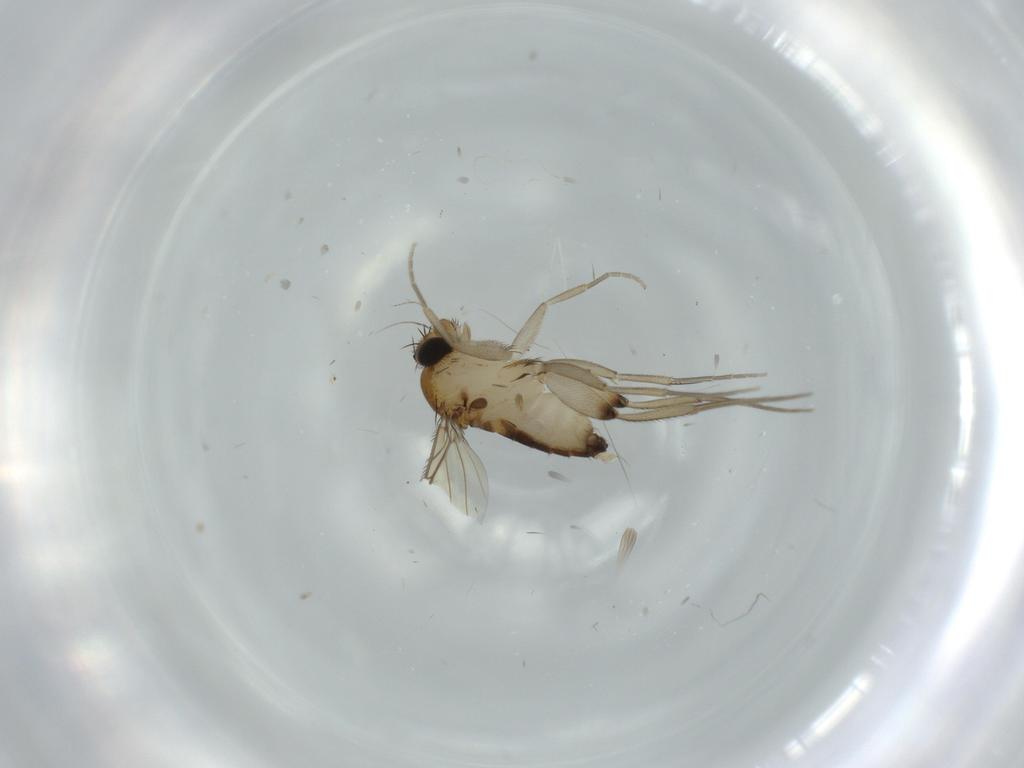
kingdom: Animalia
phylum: Arthropoda
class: Insecta
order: Diptera
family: Phoridae
